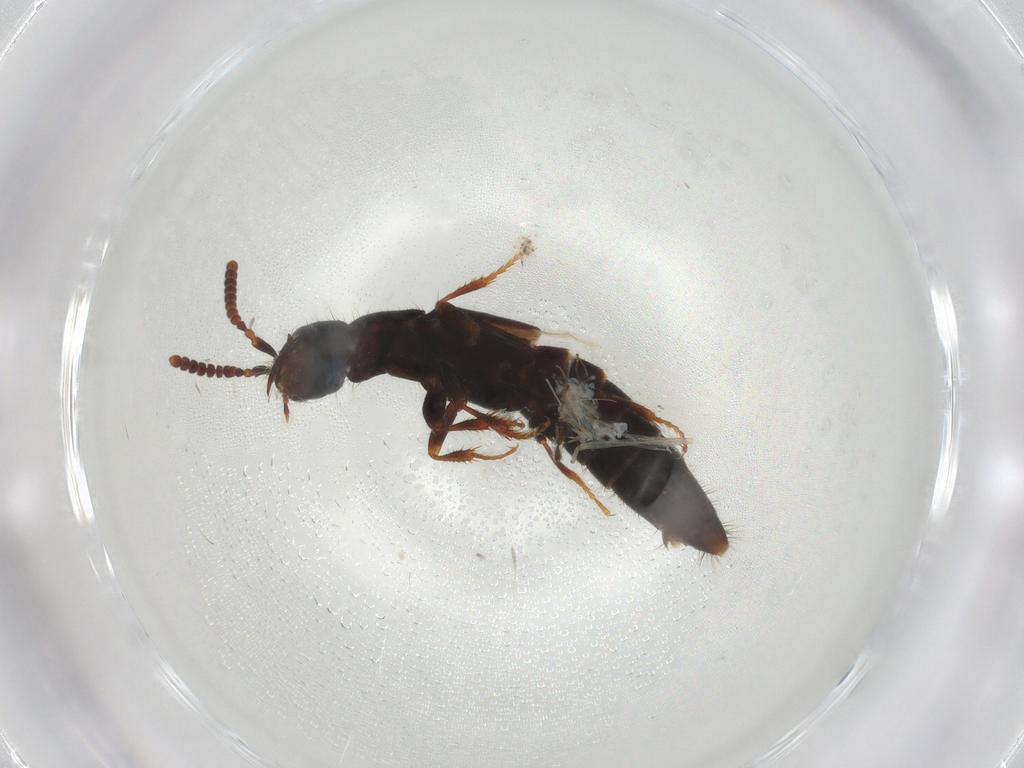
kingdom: Animalia
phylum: Arthropoda
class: Insecta
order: Coleoptera
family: Staphylinidae
